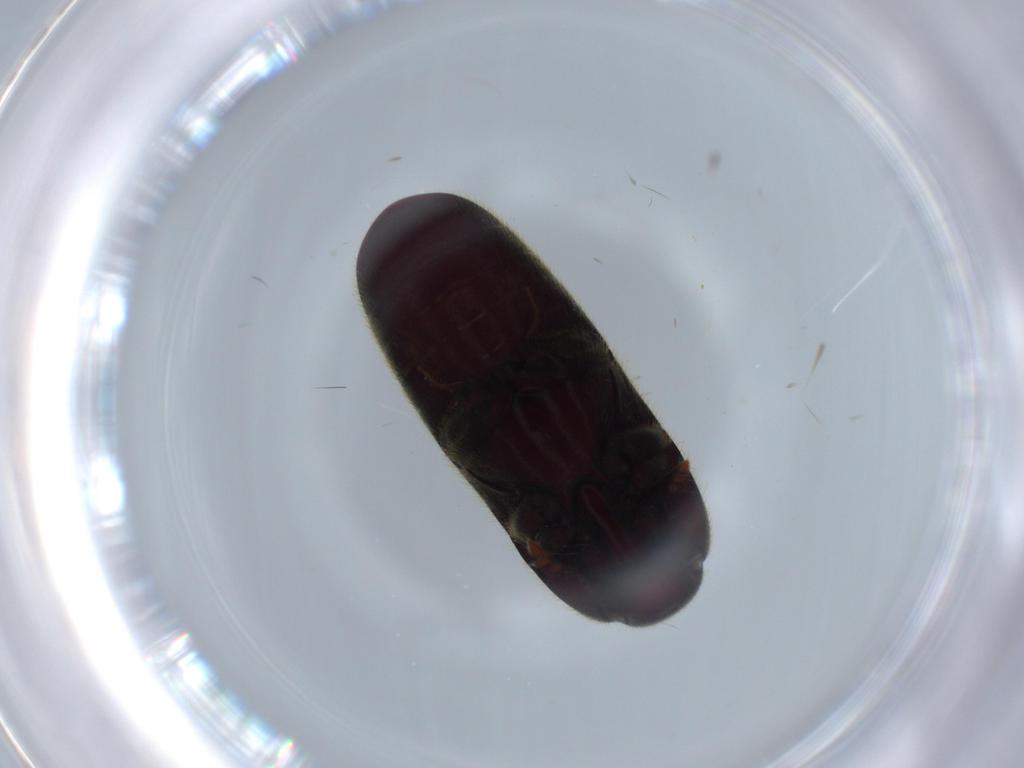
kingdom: Animalia
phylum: Arthropoda
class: Insecta
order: Coleoptera
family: Throscidae
